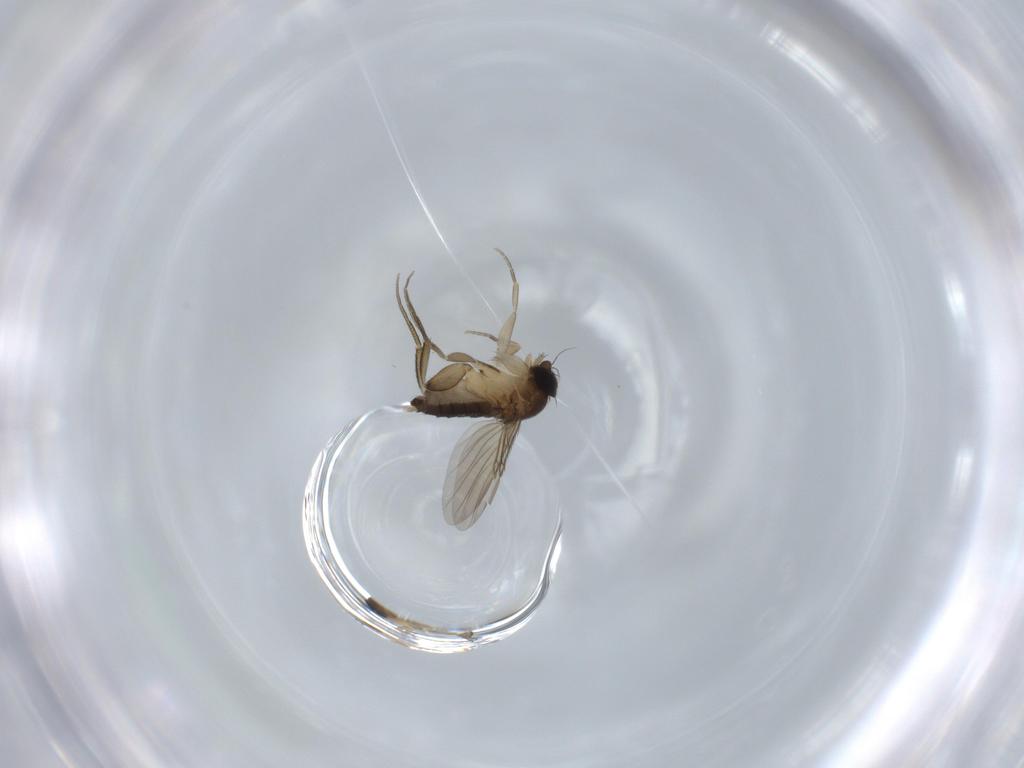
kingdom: Animalia
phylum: Arthropoda
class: Insecta
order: Diptera
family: Phoridae
